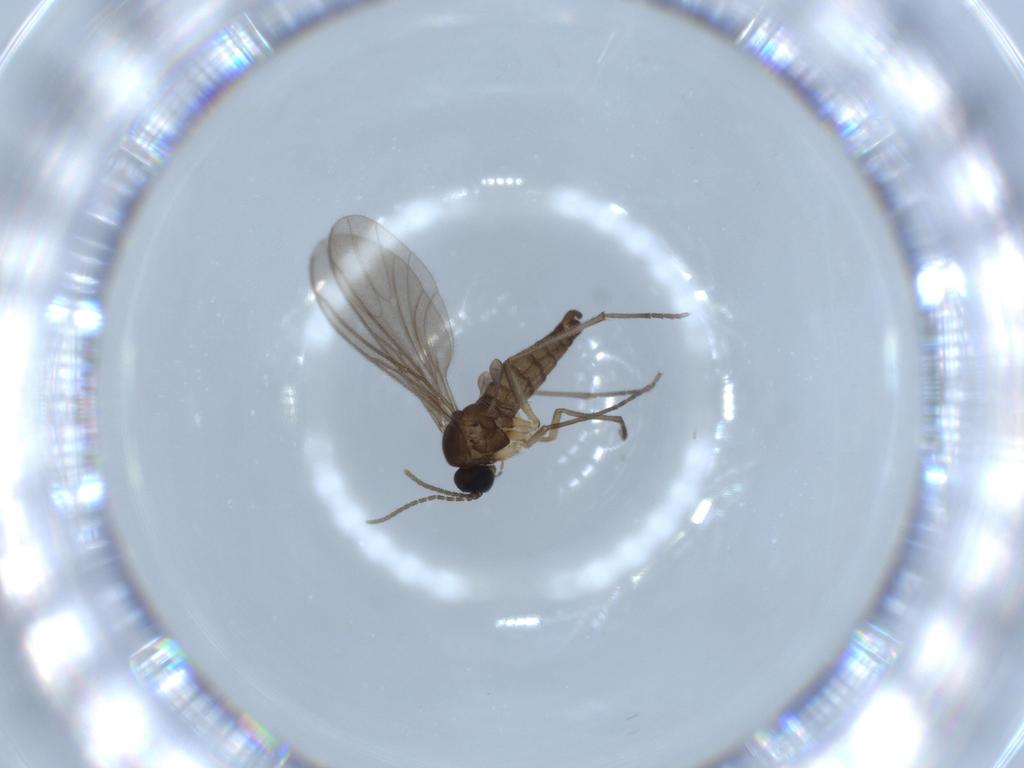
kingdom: Animalia
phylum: Arthropoda
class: Insecta
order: Diptera
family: Sciaridae
